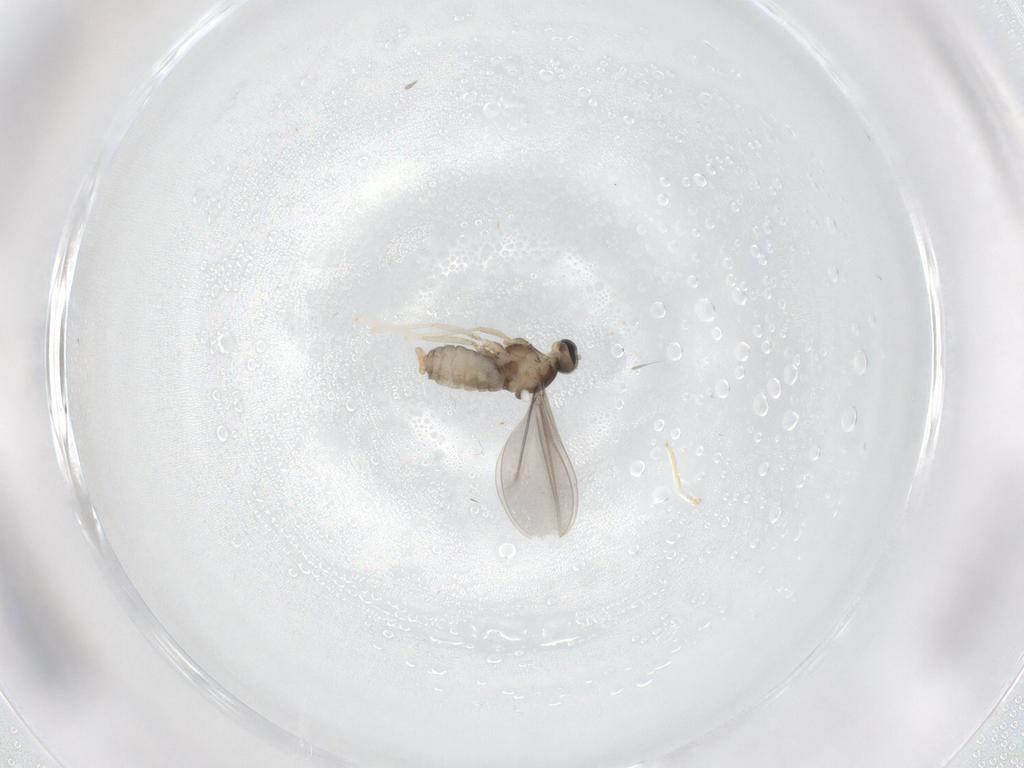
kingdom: Animalia
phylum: Arthropoda
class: Insecta
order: Diptera
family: Cecidomyiidae
